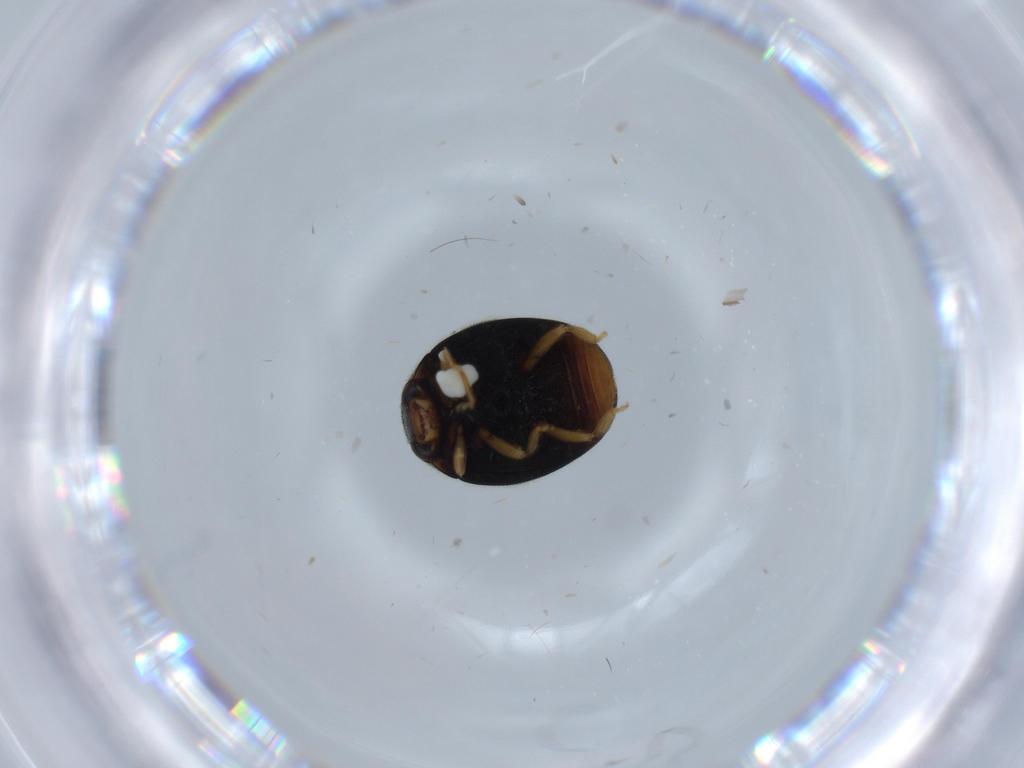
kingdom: Animalia
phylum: Arthropoda
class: Insecta
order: Coleoptera
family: Coccinellidae
